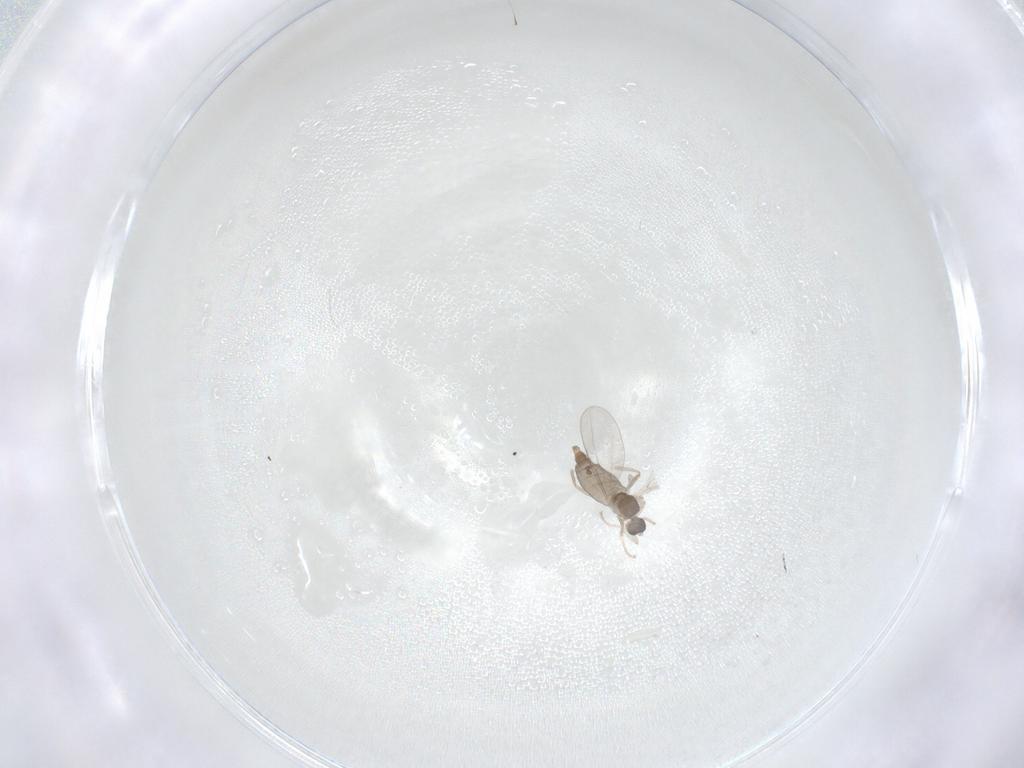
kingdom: Animalia
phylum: Arthropoda
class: Insecta
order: Diptera
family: Cecidomyiidae
